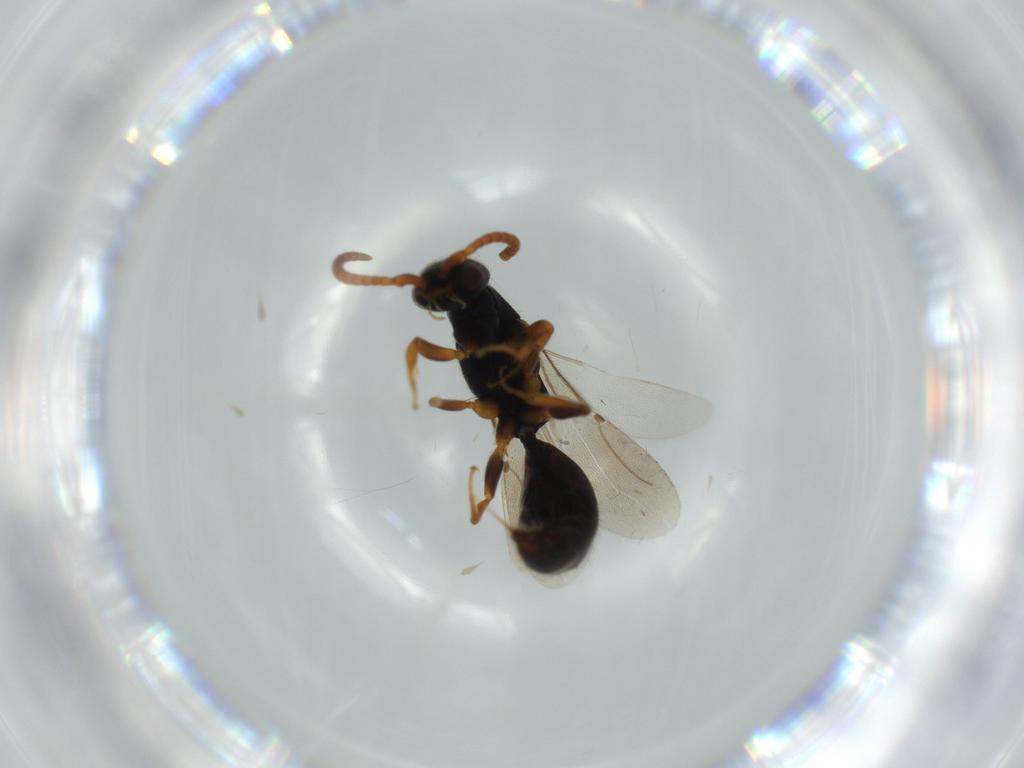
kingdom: Animalia
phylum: Arthropoda
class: Insecta
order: Hymenoptera
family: Bethylidae
